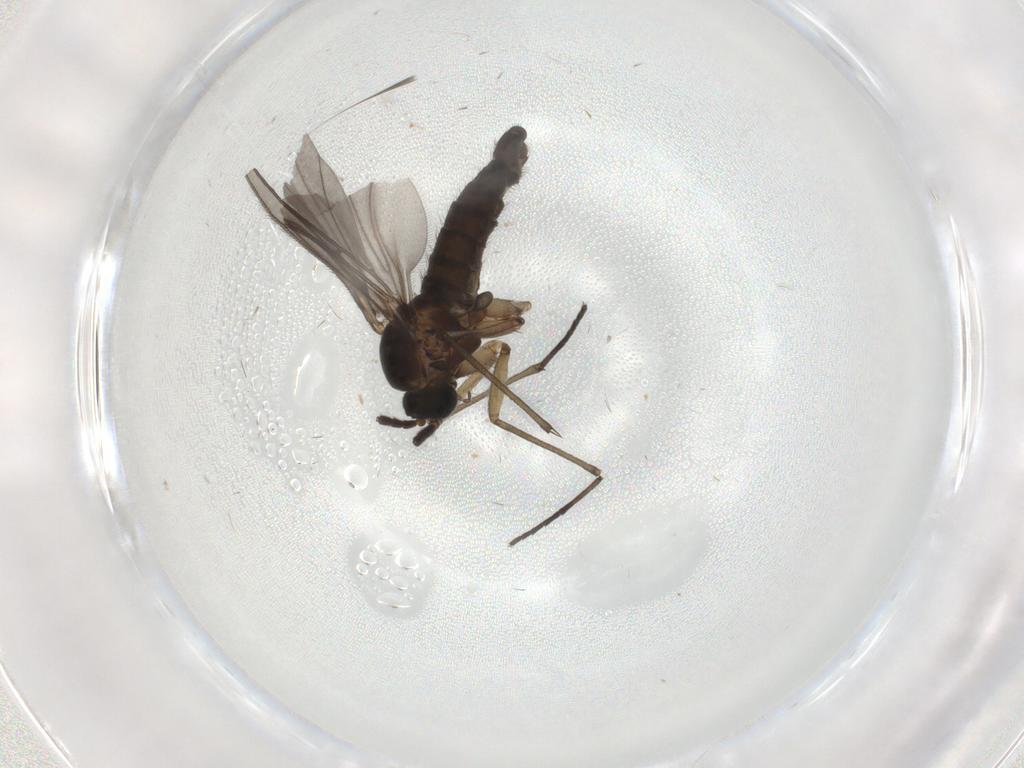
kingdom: Animalia
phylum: Arthropoda
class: Insecta
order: Diptera
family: Sciaridae
